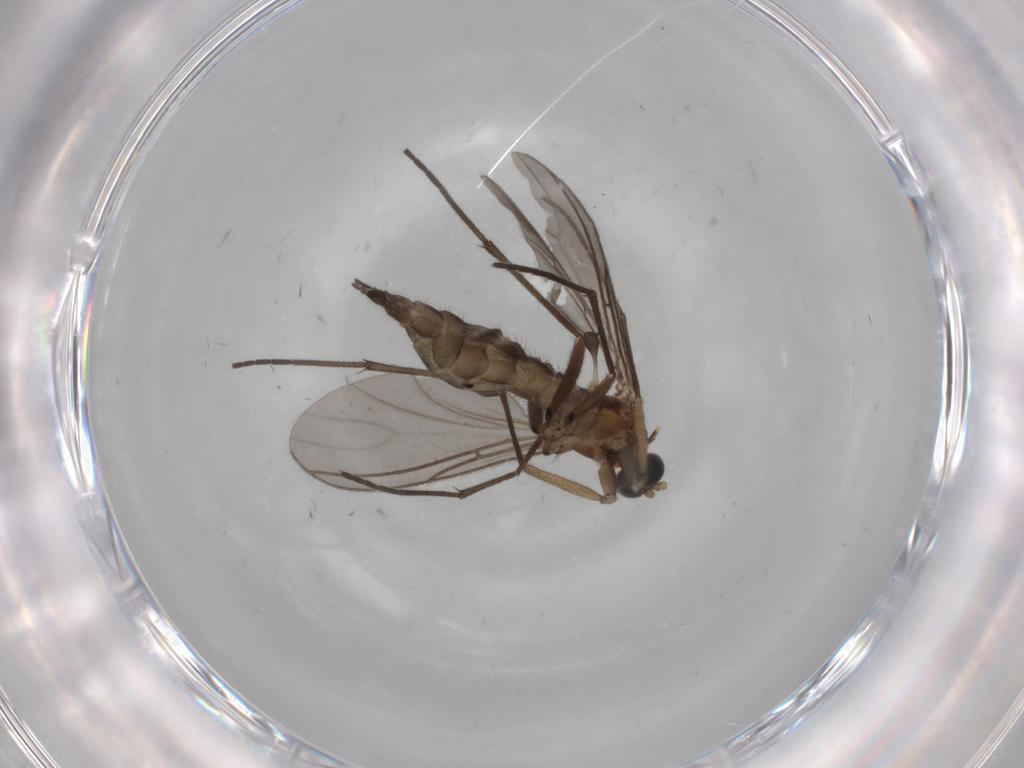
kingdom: Animalia
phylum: Arthropoda
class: Insecta
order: Diptera
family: Sciaridae
